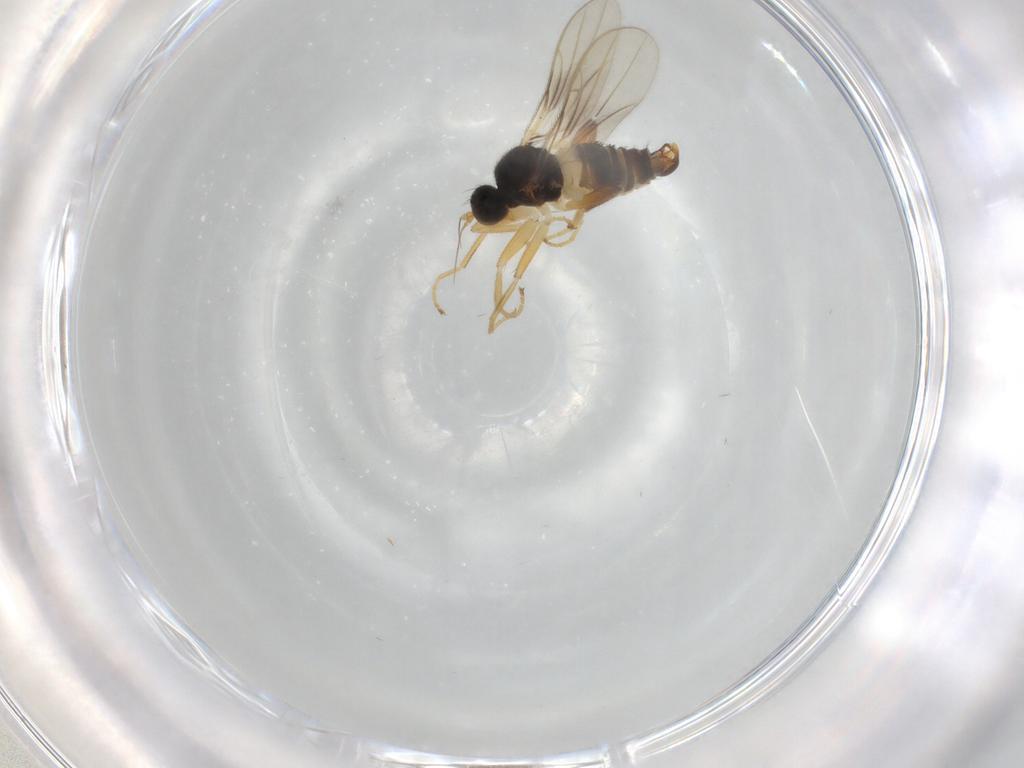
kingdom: Animalia
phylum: Arthropoda
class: Insecta
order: Diptera
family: Hybotidae
